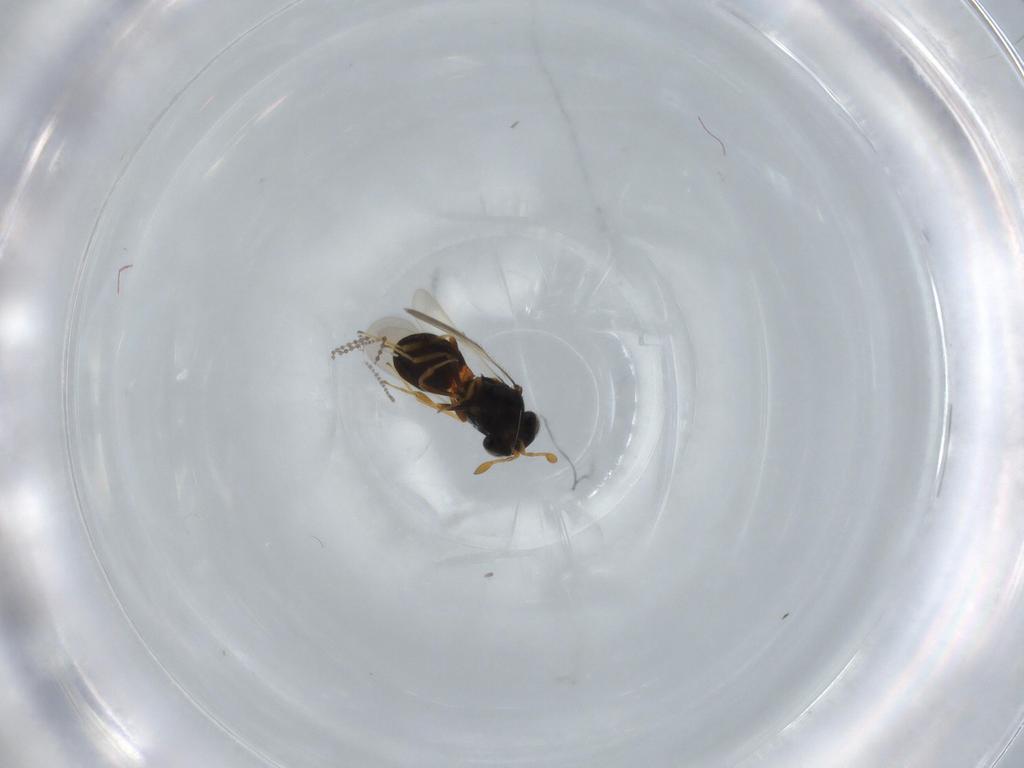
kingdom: Animalia
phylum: Arthropoda
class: Insecta
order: Hymenoptera
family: Scelionidae
